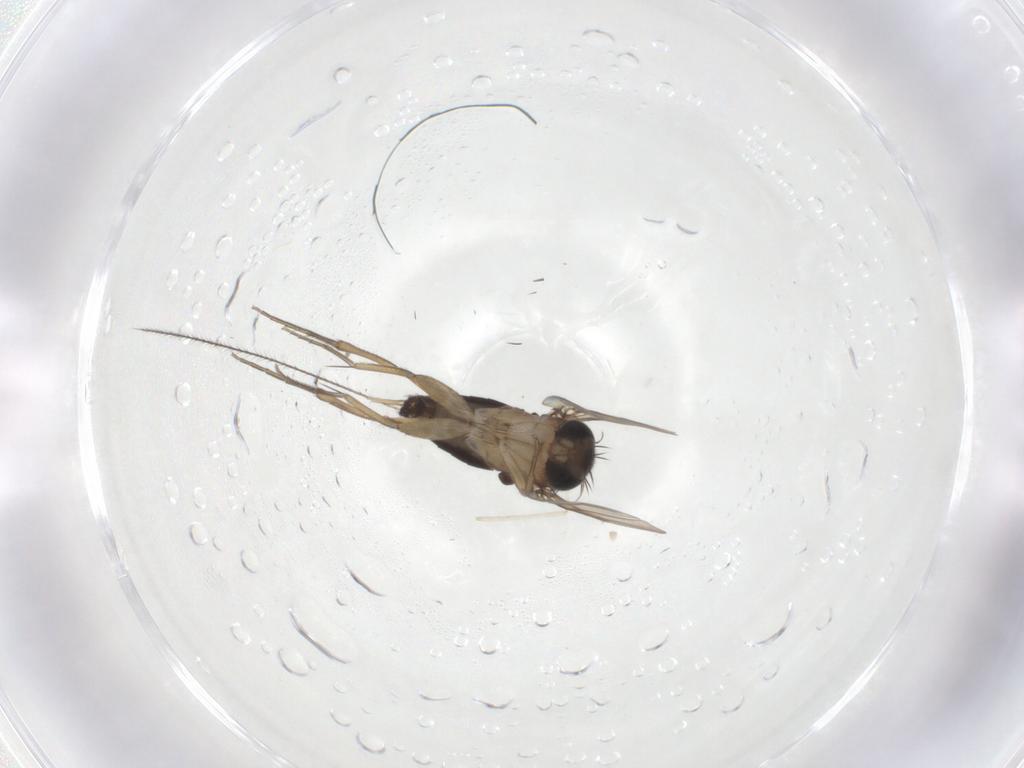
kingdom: Animalia
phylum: Arthropoda
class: Insecta
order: Diptera
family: Phoridae
